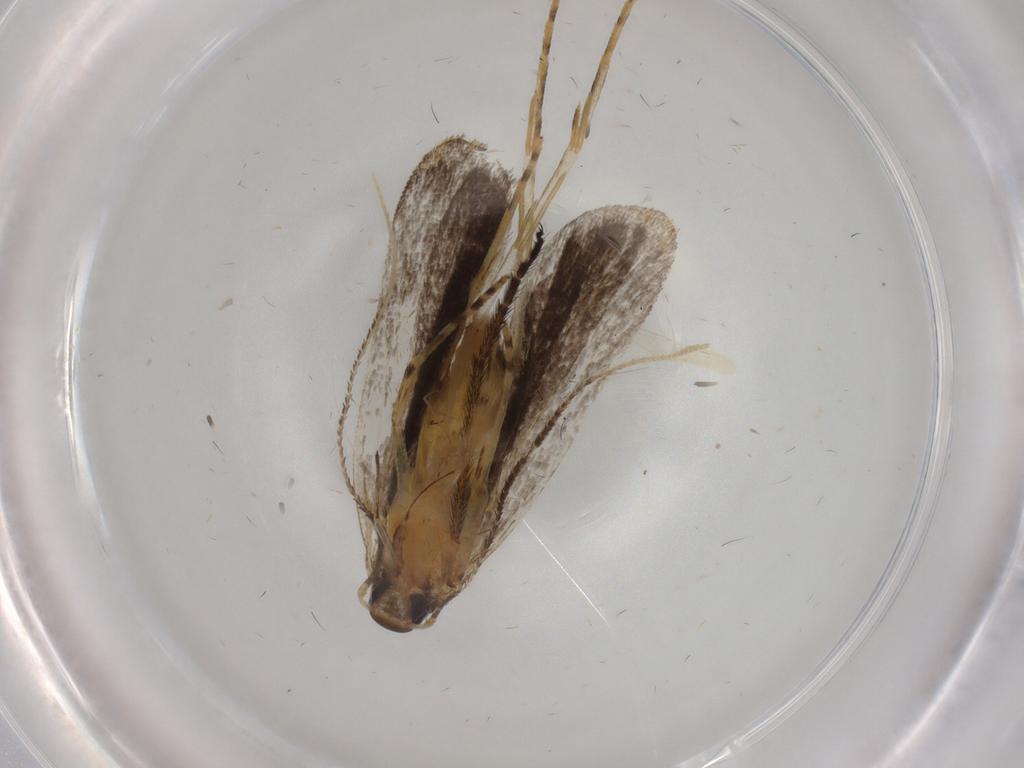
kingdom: Animalia
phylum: Arthropoda
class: Insecta
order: Lepidoptera
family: Cosmopterigidae
